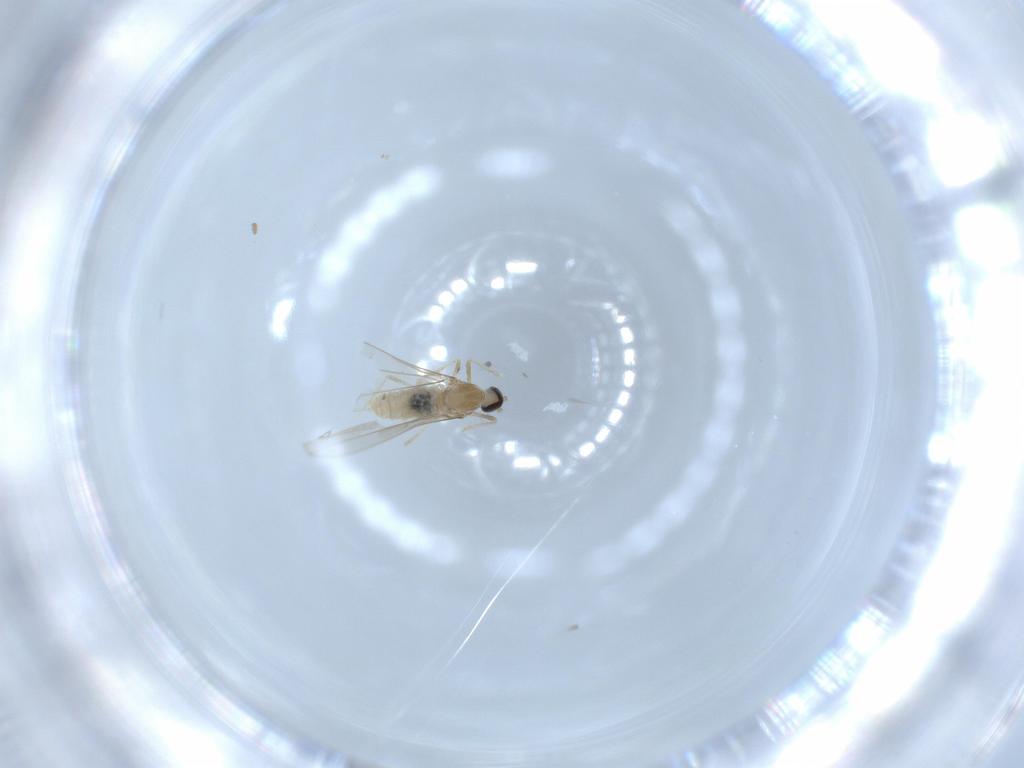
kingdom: Animalia
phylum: Arthropoda
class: Insecta
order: Diptera
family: Cecidomyiidae
